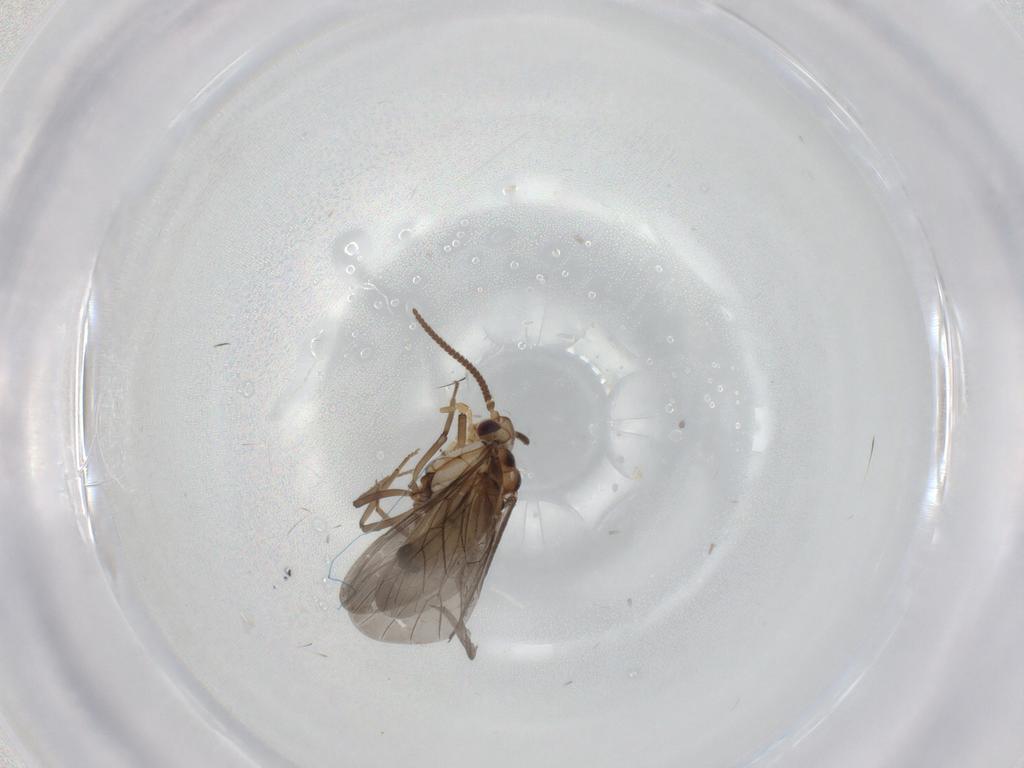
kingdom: Animalia
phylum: Arthropoda
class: Insecta
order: Neuroptera
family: Coniopterygidae
